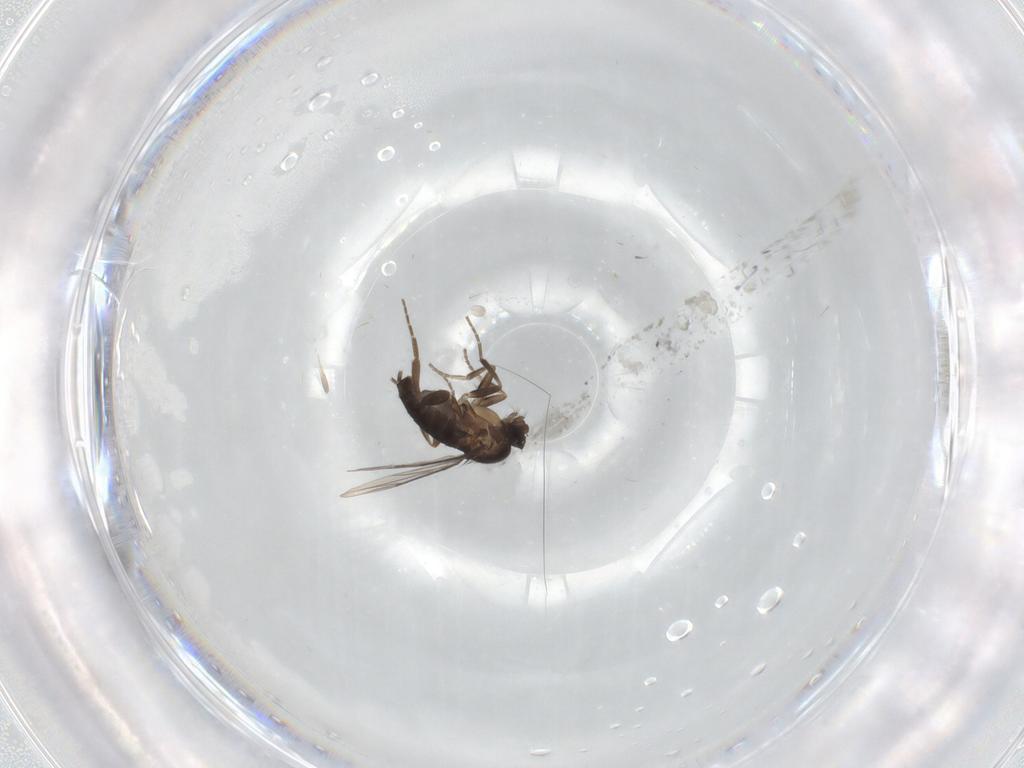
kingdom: Animalia
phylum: Arthropoda
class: Insecta
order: Diptera
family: Phoridae
